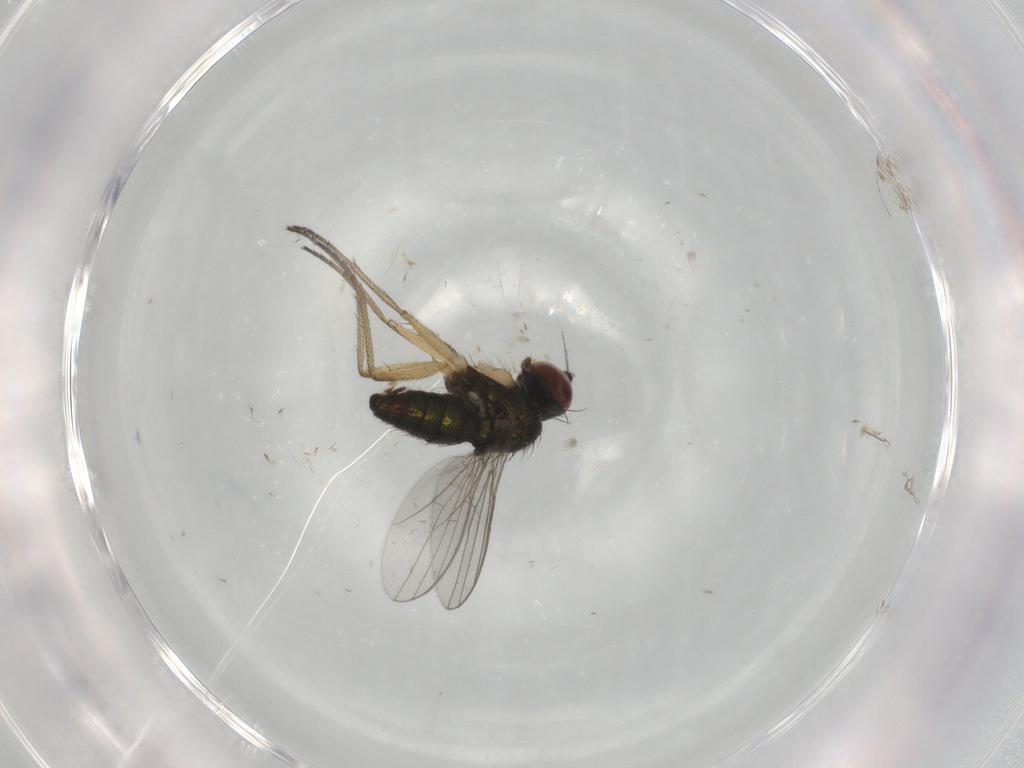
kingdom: Animalia
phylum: Arthropoda
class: Insecta
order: Diptera
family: Dolichopodidae
